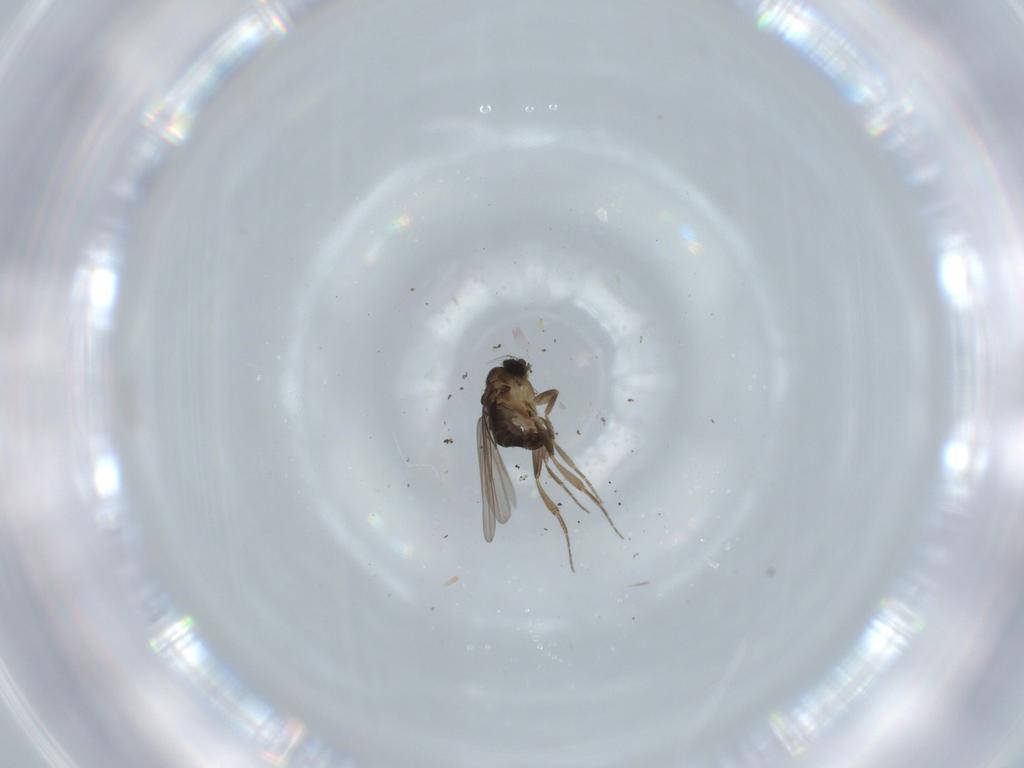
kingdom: Animalia
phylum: Arthropoda
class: Insecta
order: Diptera
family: Phoridae
